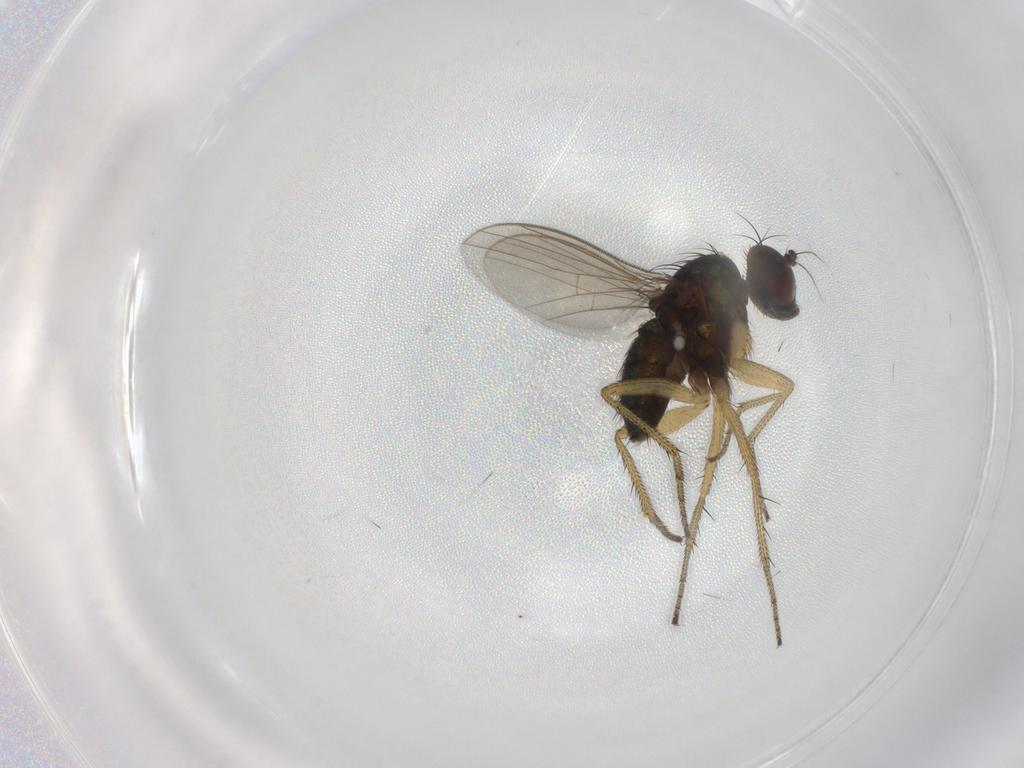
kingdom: Animalia
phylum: Arthropoda
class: Insecta
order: Diptera
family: Dolichopodidae
